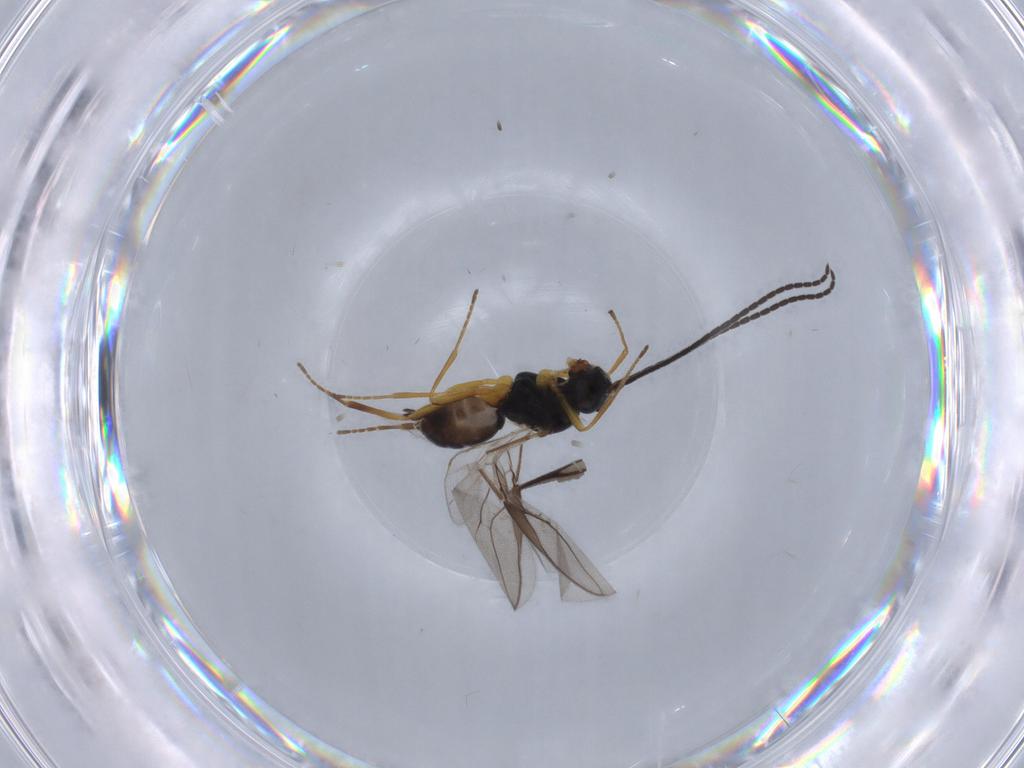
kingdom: Animalia
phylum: Arthropoda
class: Insecta
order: Hymenoptera
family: Braconidae
